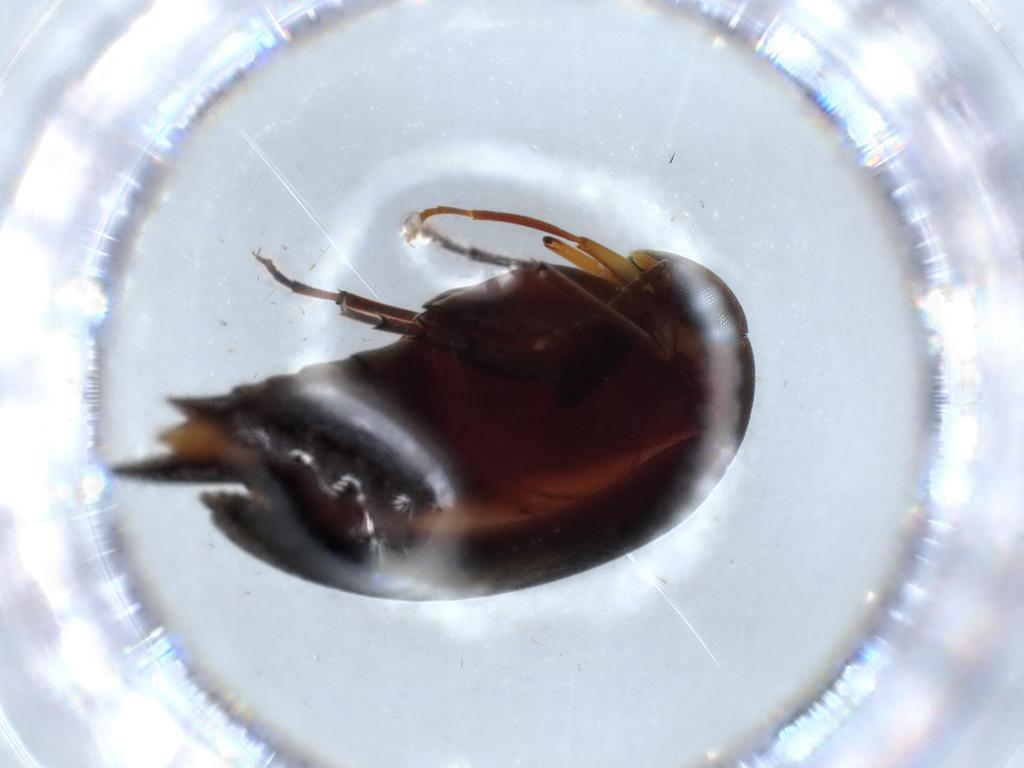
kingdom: Animalia
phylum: Arthropoda
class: Insecta
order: Coleoptera
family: Mordellidae
